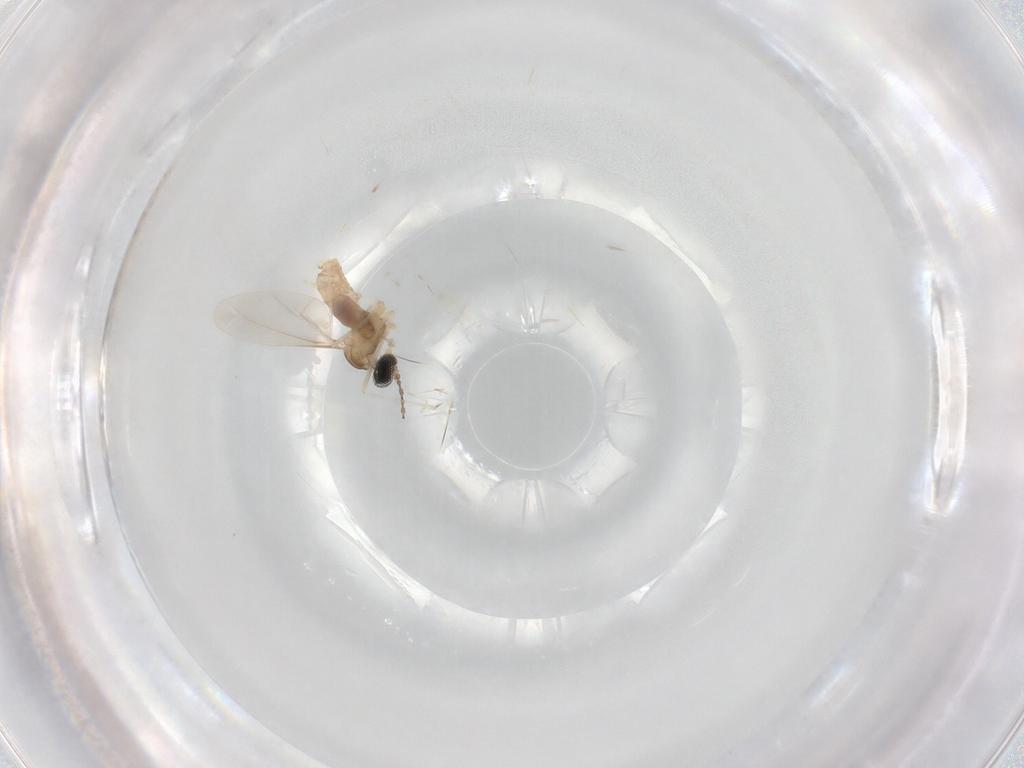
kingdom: Animalia
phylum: Arthropoda
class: Insecta
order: Diptera
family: Cecidomyiidae
